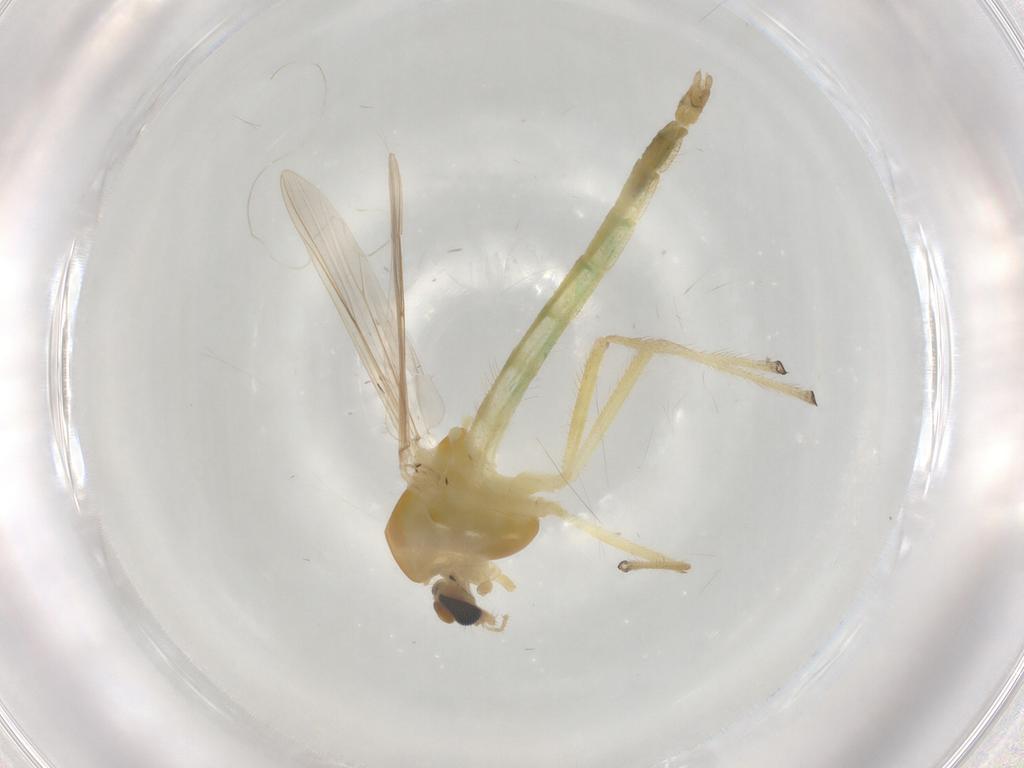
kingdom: Animalia
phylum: Arthropoda
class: Insecta
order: Diptera
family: Chironomidae
